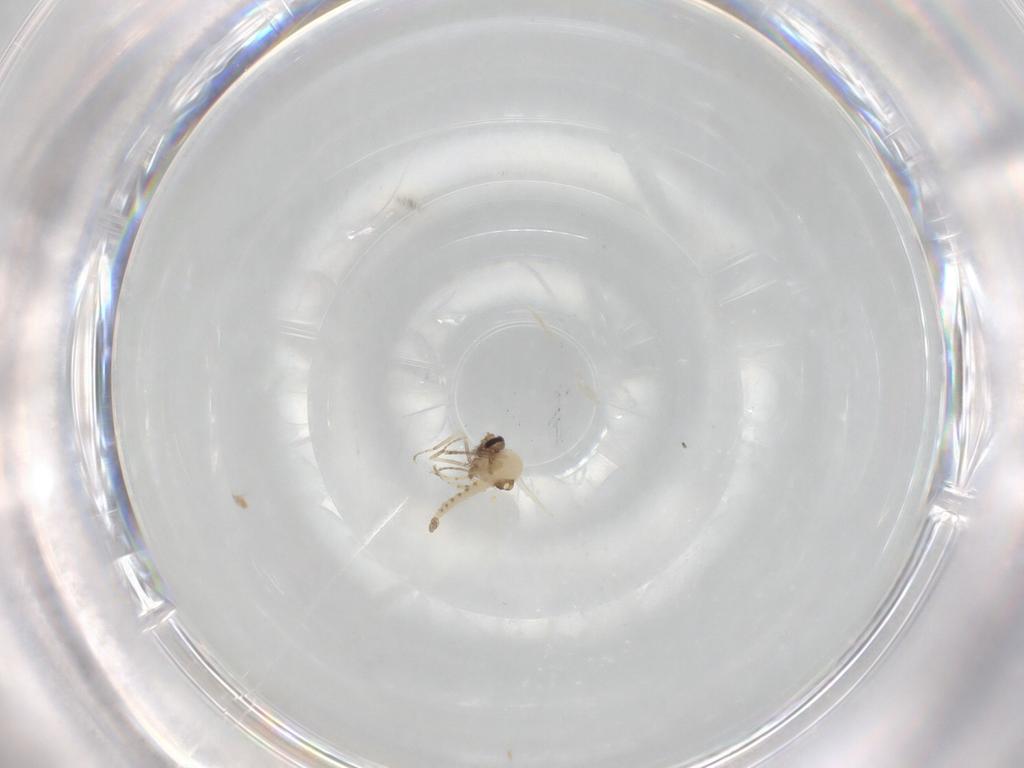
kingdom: Animalia
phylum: Arthropoda
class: Insecta
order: Diptera
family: Ceratopogonidae
